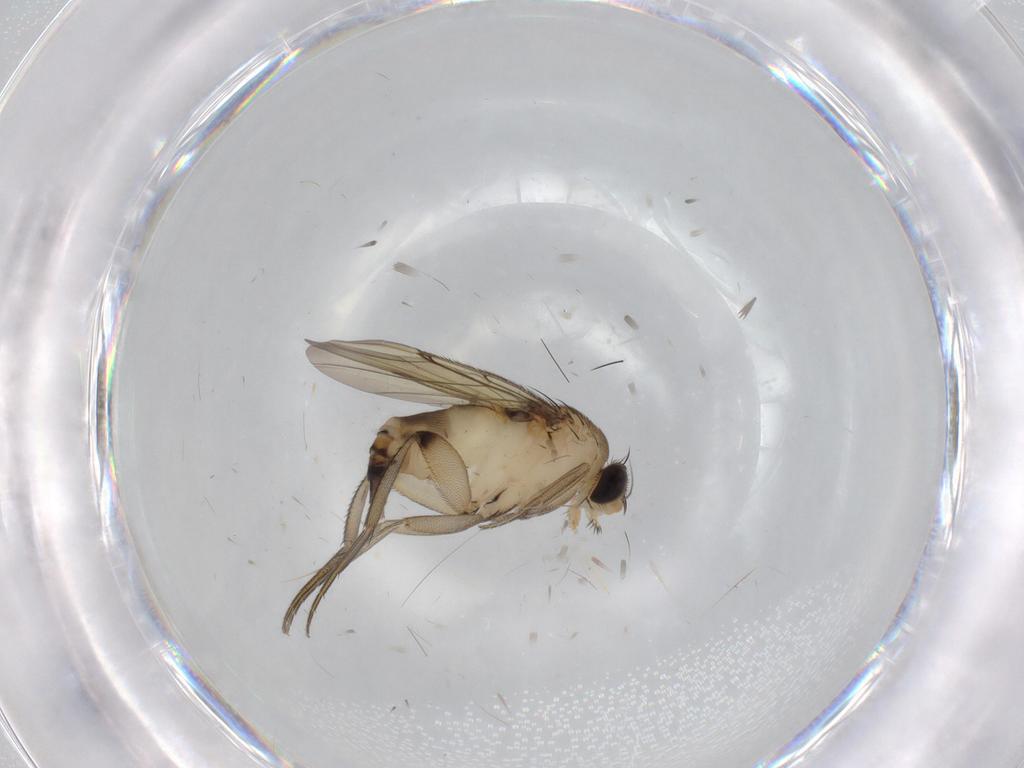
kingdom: Animalia
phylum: Arthropoda
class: Insecta
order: Diptera
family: Phoridae
